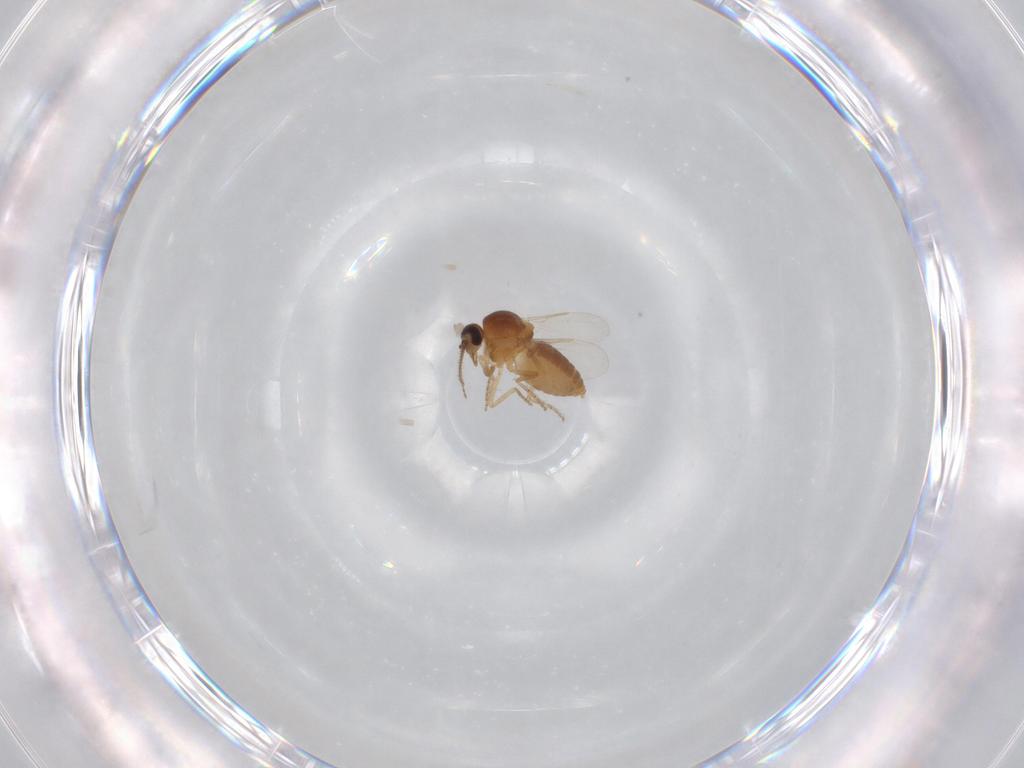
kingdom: Animalia
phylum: Arthropoda
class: Insecta
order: Diptera
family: Ceratopogonidae
